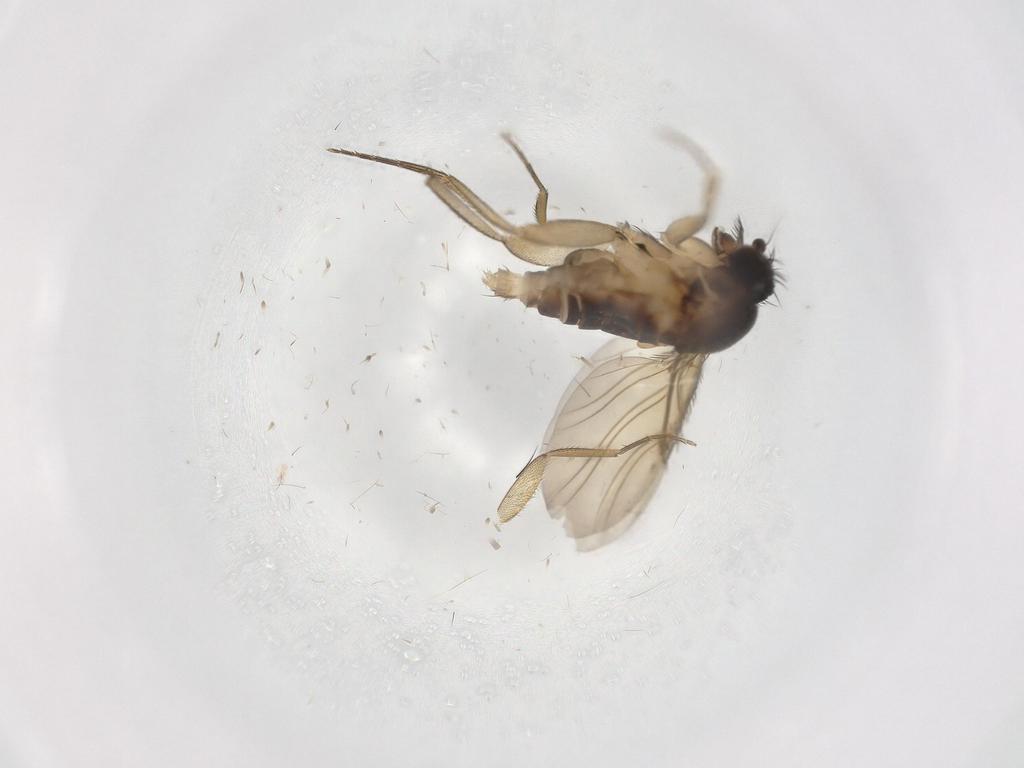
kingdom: Animalia
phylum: Arthropoda
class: Insecta
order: Diptera
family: Phoridae
